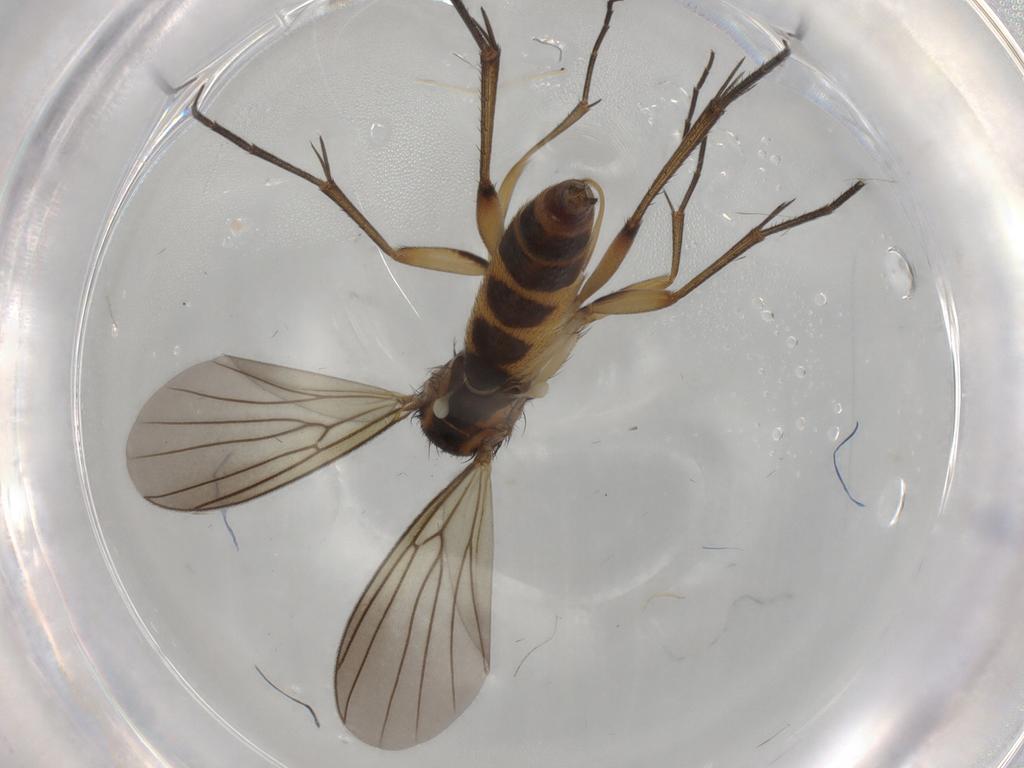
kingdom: Animalia
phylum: Arthropoda
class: Insecta
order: Diptera
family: Mycetophilidae
